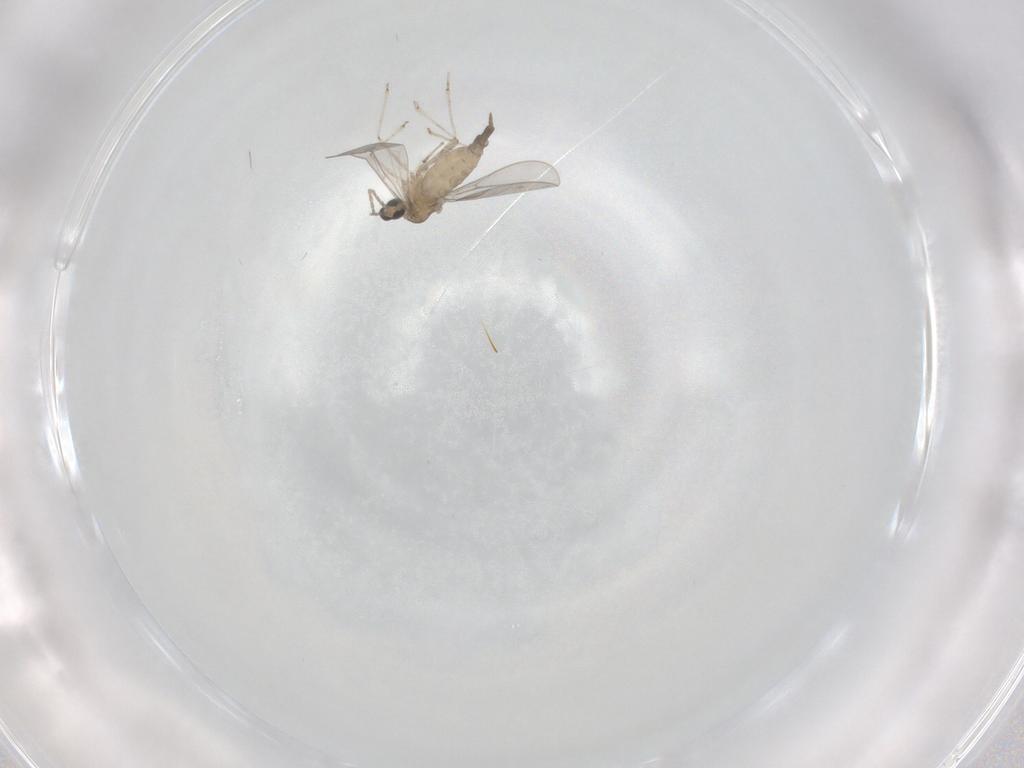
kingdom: Animalia
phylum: Arthropoda
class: Insecta
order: Diptera
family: Cecidomyiidae
